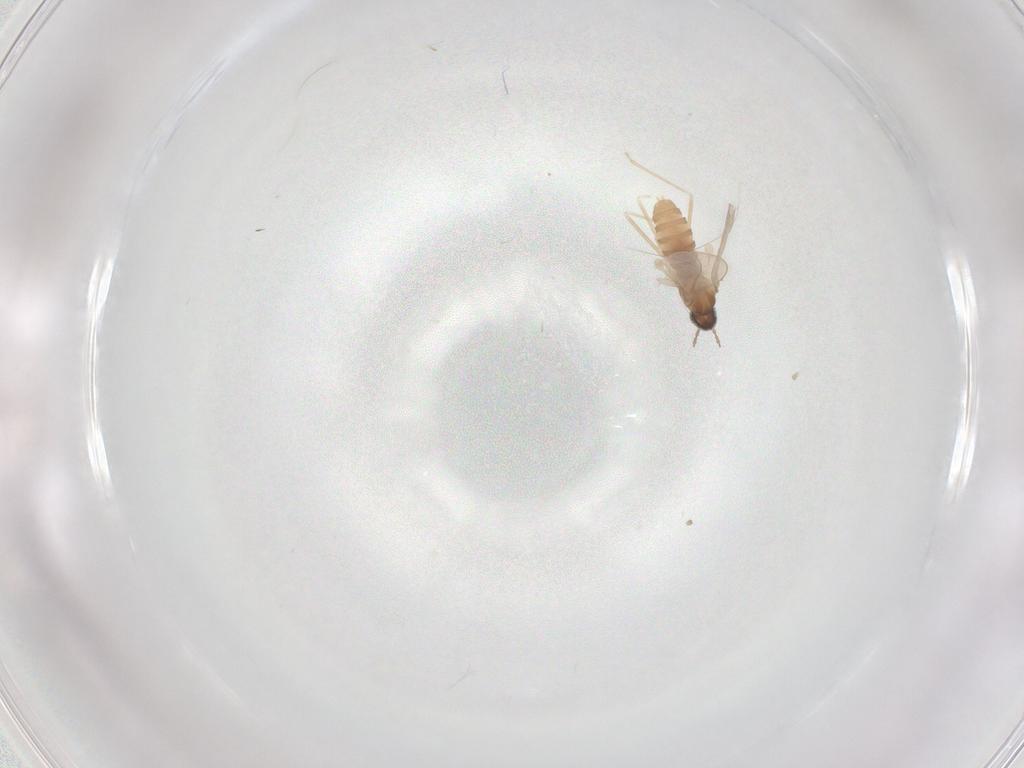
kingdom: Animalia
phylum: Arthropoda
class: Insecta
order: Diptera
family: Cecidomyiidae
